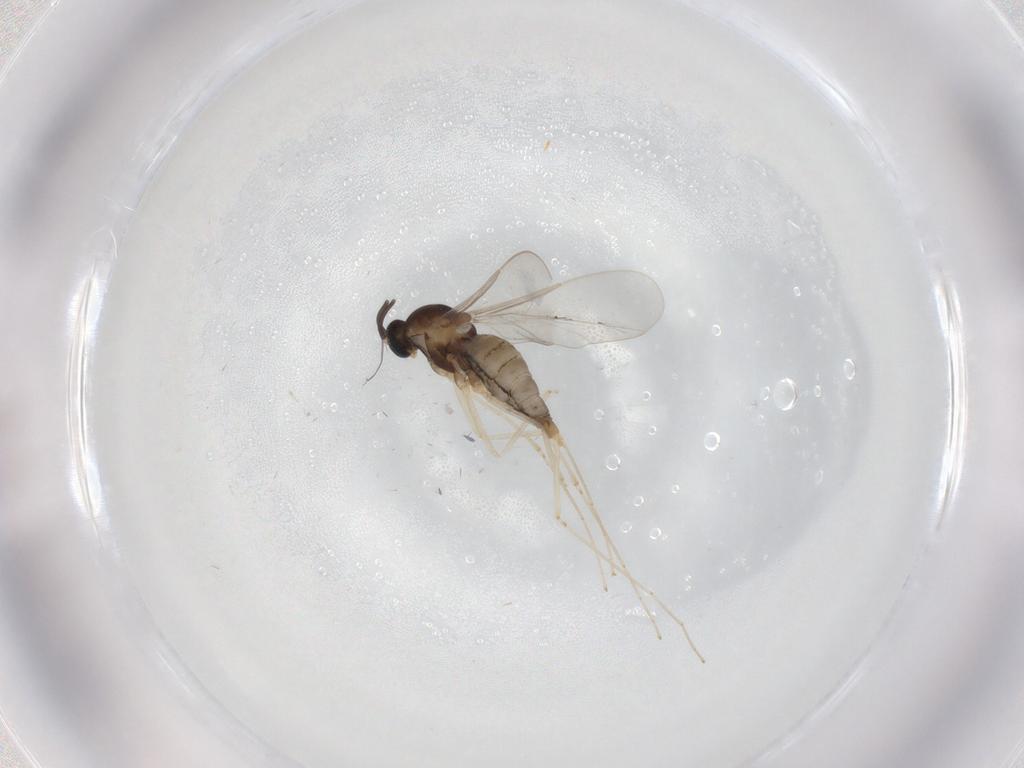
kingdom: Animalia
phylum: Arthropoda
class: Insecta
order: Diptera
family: Cecidomyiidae
